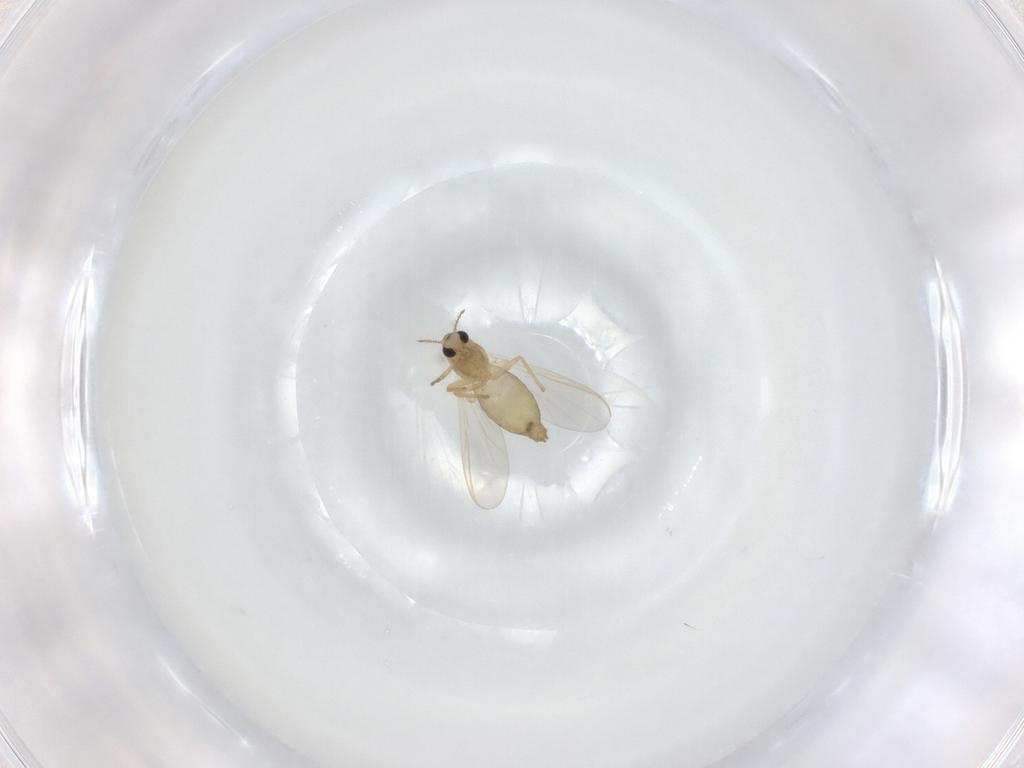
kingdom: Animalia
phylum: Arthropoda
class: Insecta
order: Diptera
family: Chironomidae
